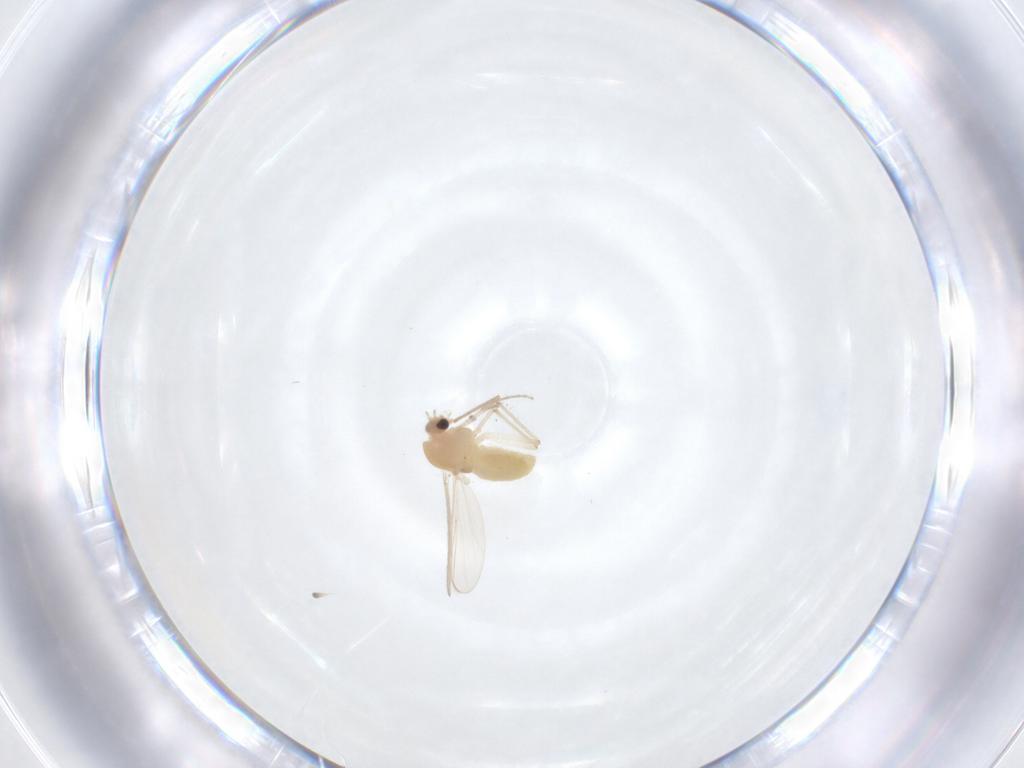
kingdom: Animalia
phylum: Arthropoda
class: Insecta
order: Diptera
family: Chironomidae
